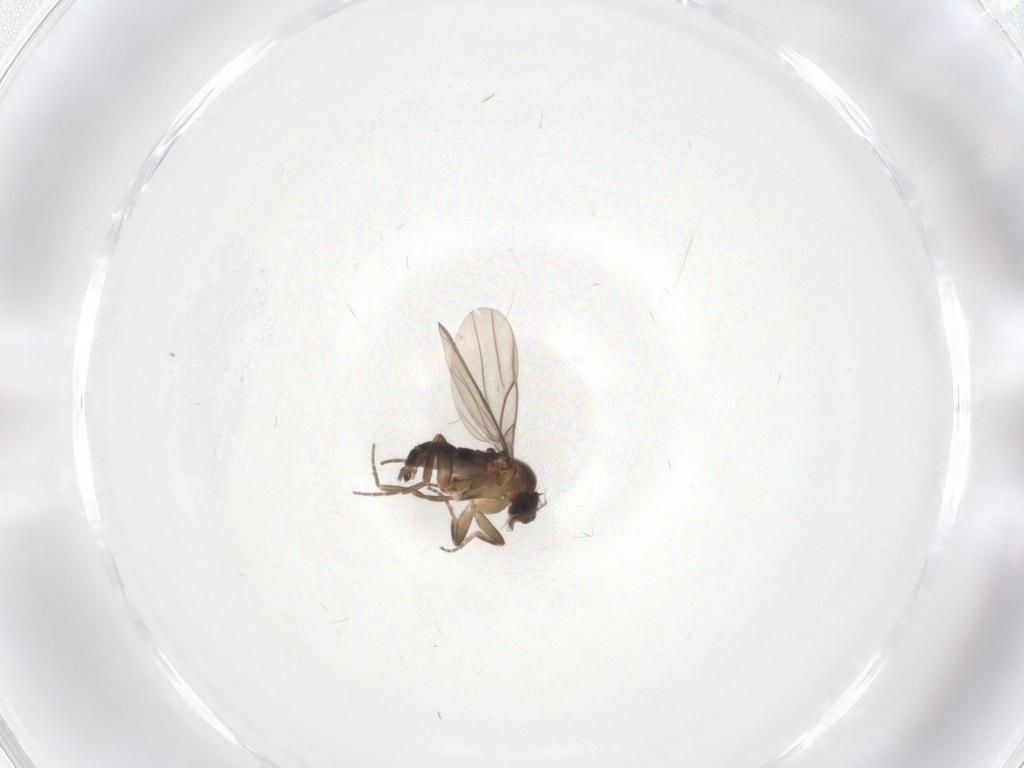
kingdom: Animalia
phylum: Arthropoda
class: Insecta
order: Diptera
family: Phoridae
